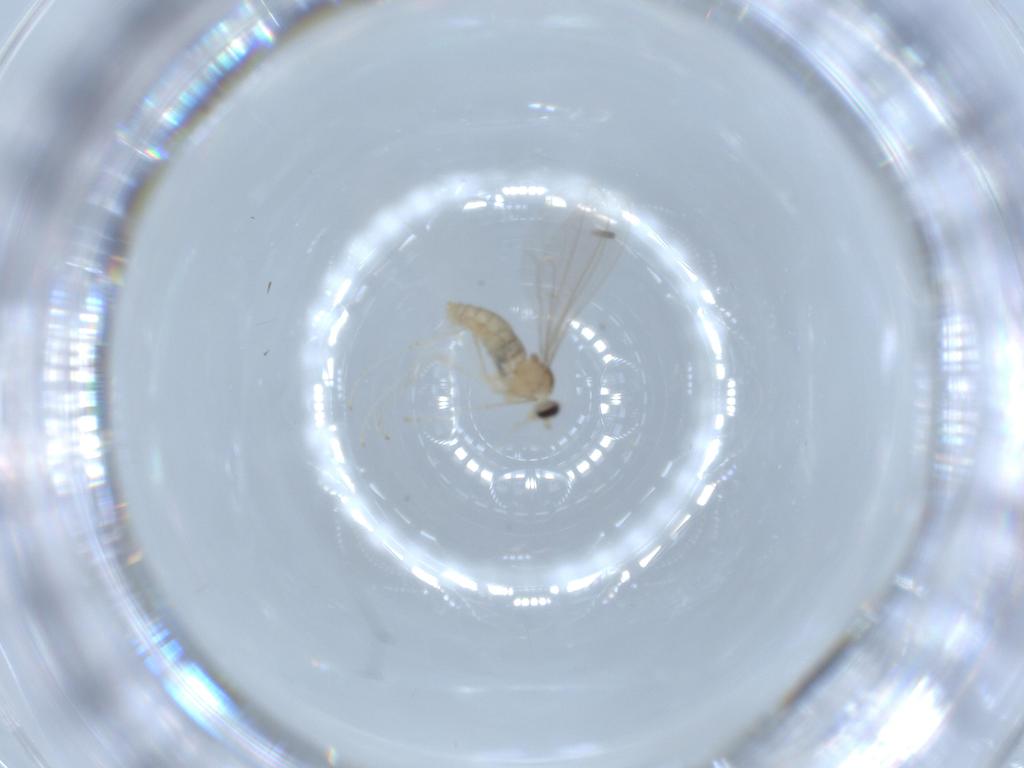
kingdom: Animalia
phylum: Arthropoda
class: Insecta
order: Diptera
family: Cecidomyiidae
